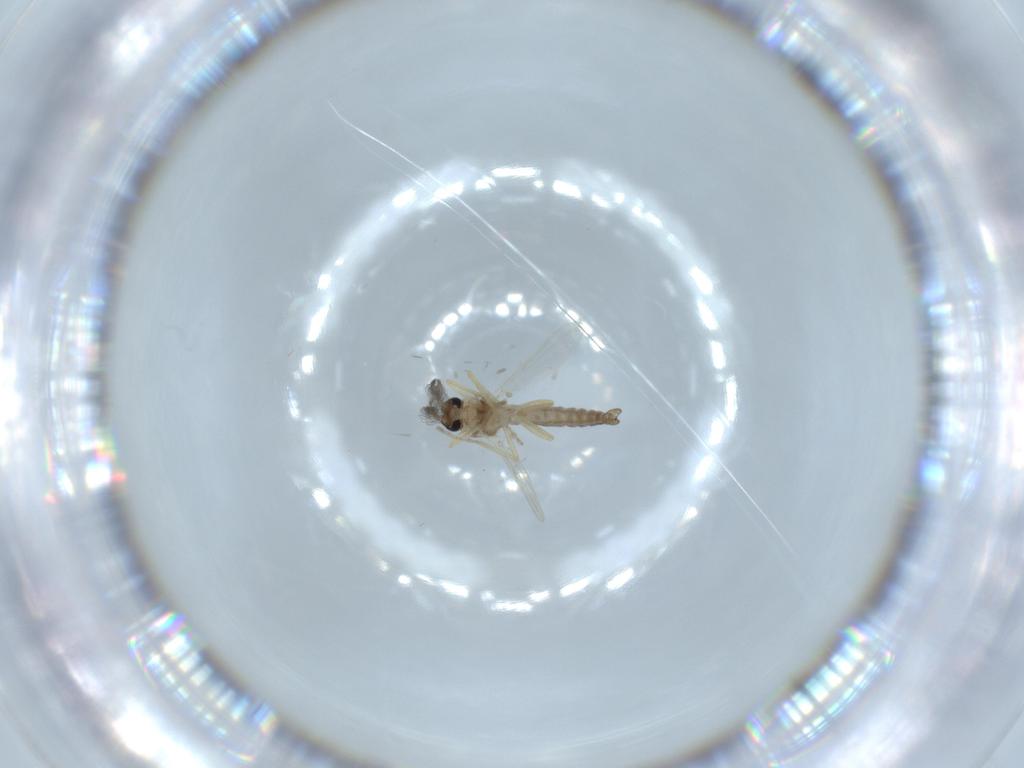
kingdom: Animalia
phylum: Arthropoda
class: Insecta
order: Diptera
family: Ceratopogonidae
